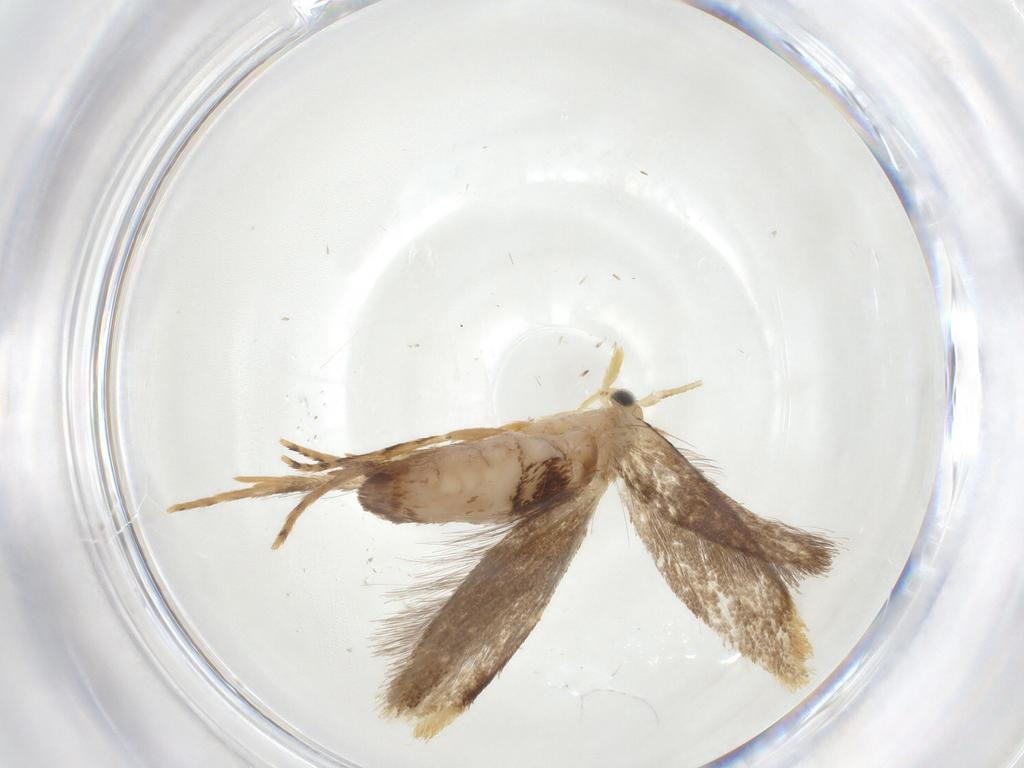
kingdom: Animalia
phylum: Arthropoda
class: Insecta
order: Lepidoptera
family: Dryadaulidae
